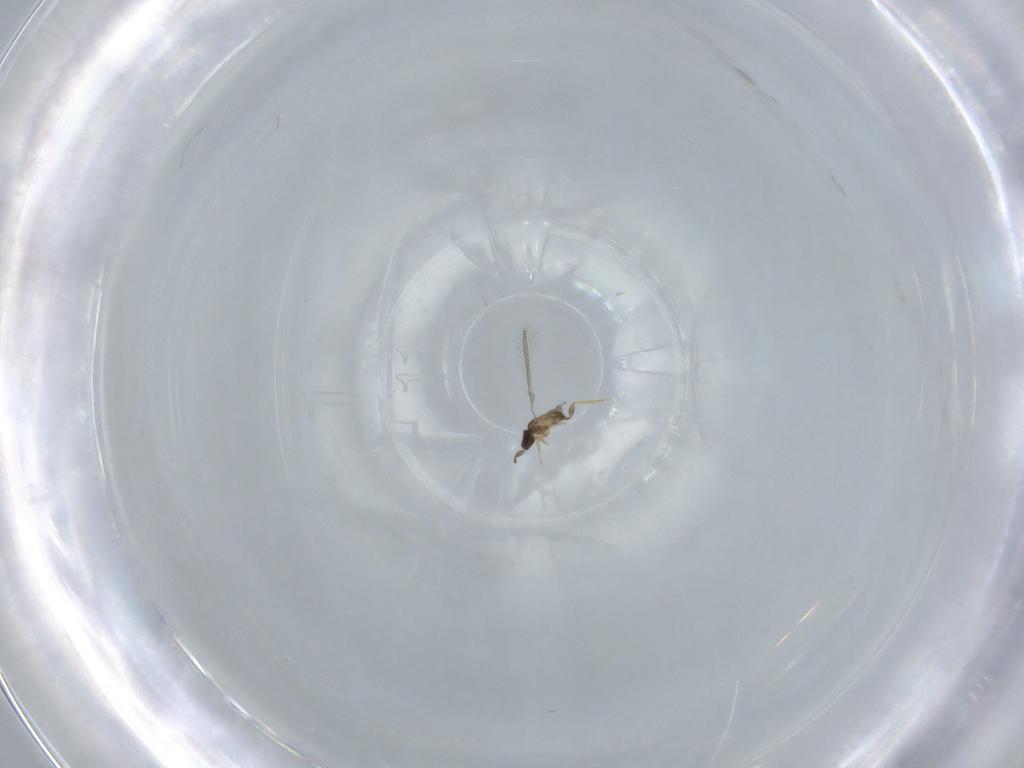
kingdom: Animalia
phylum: Arthropoda
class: Insecta
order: Hymenoptera
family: Mymaridae
